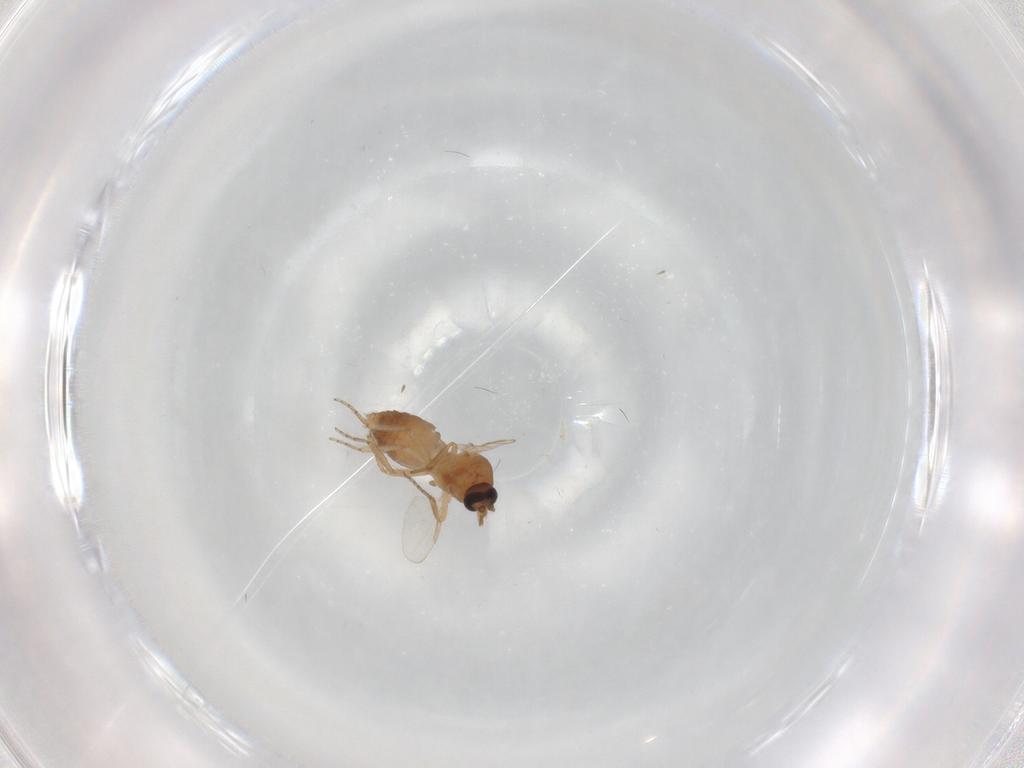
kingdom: Animalia
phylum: Arthropoda
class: Insecta
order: Diptera
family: Ceratopogonidae
